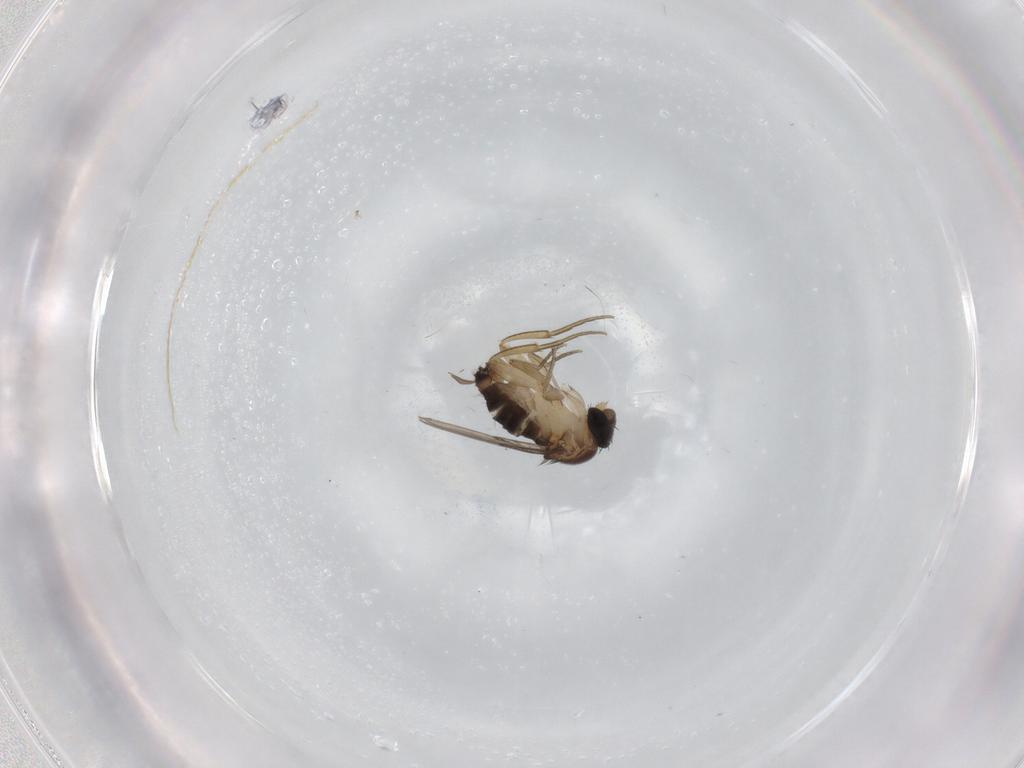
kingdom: Animalia
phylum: Arthropoda
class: Insecta
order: Diptera
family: Phoridae
